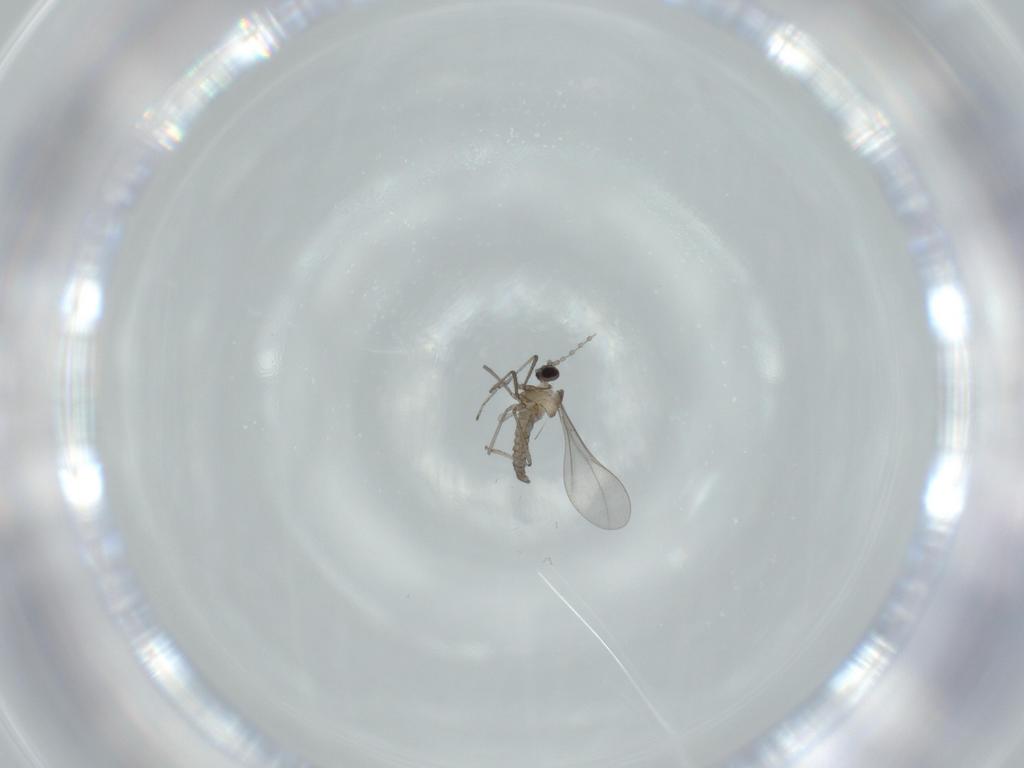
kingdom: Animalia
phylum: Arthropoda
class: Insecta
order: Diptera
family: Cecidomyiidae
